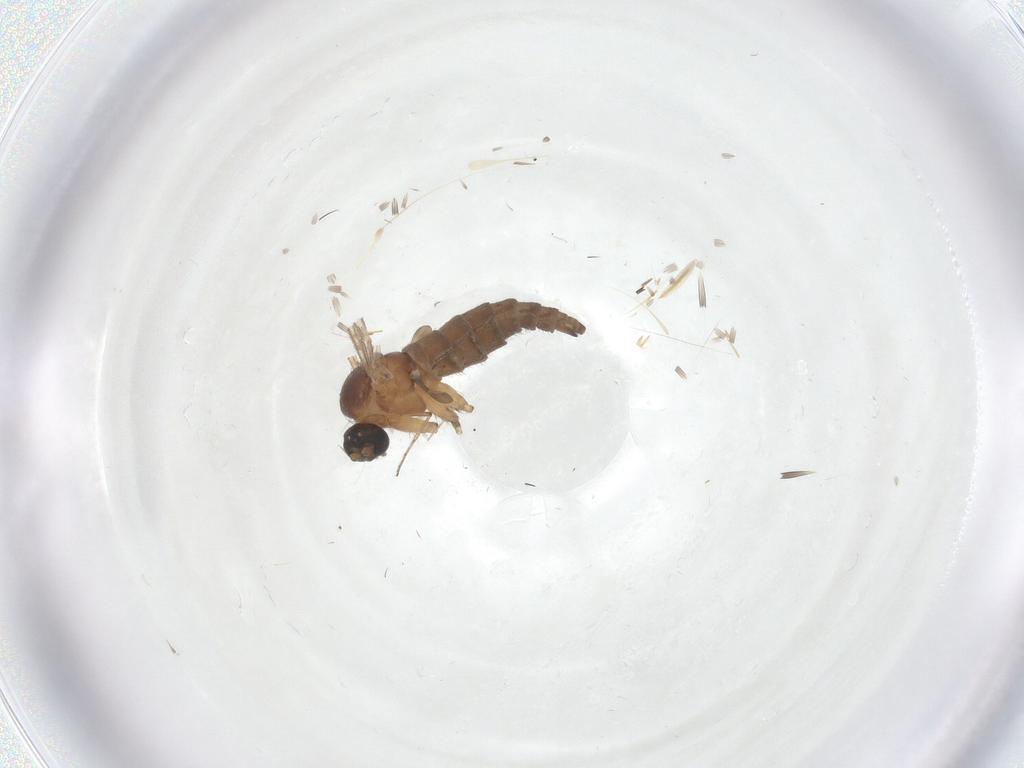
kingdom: Animalia
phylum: Arthropoda
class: Insecta
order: Diptera
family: Sciaridae
